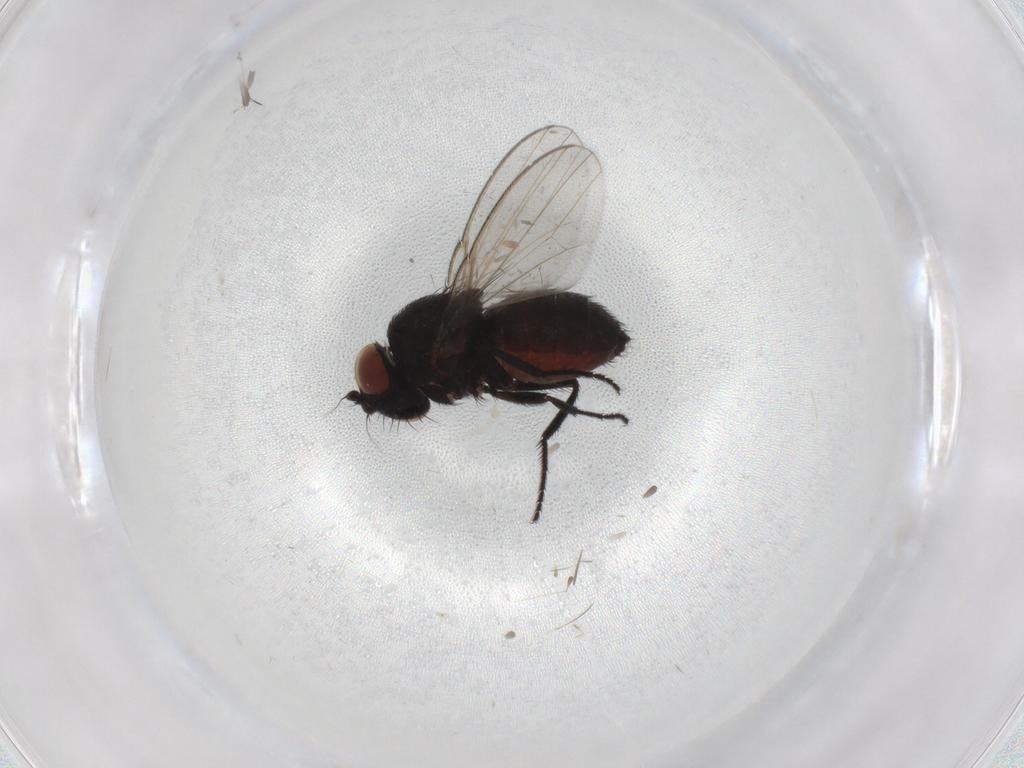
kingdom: Animalia
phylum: Arthropoda
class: Insecta
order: Diptera
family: Milichiidae
